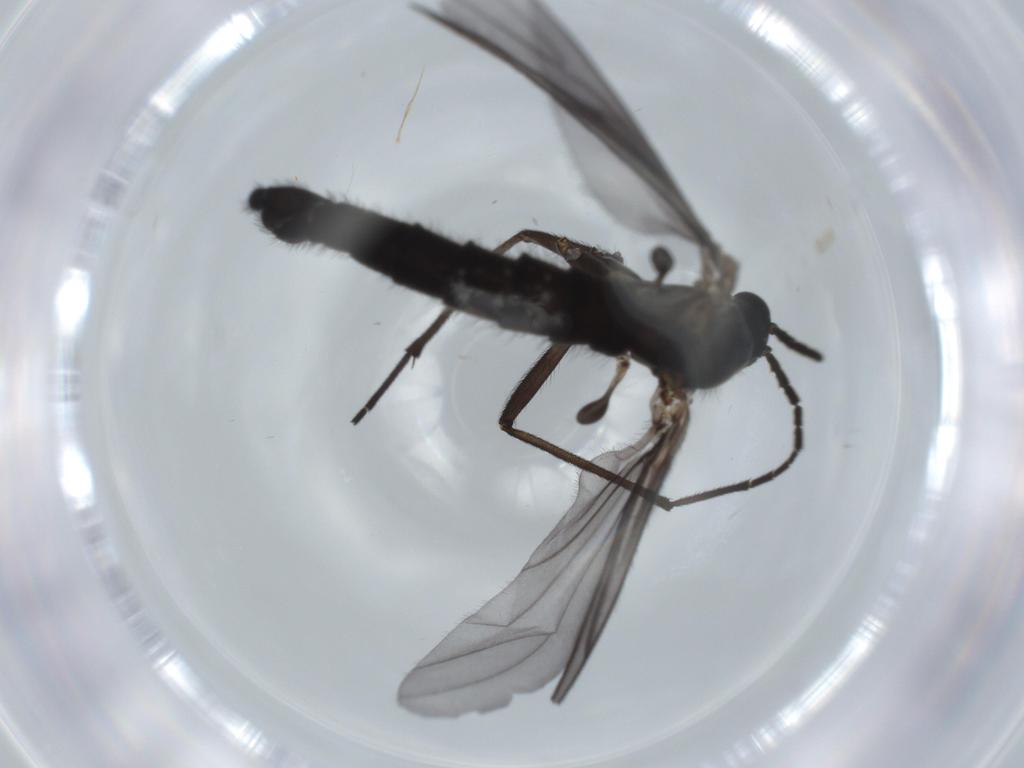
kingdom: Animalia
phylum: Arthropoda
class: Insecta
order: Diptera
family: Sciaridae
